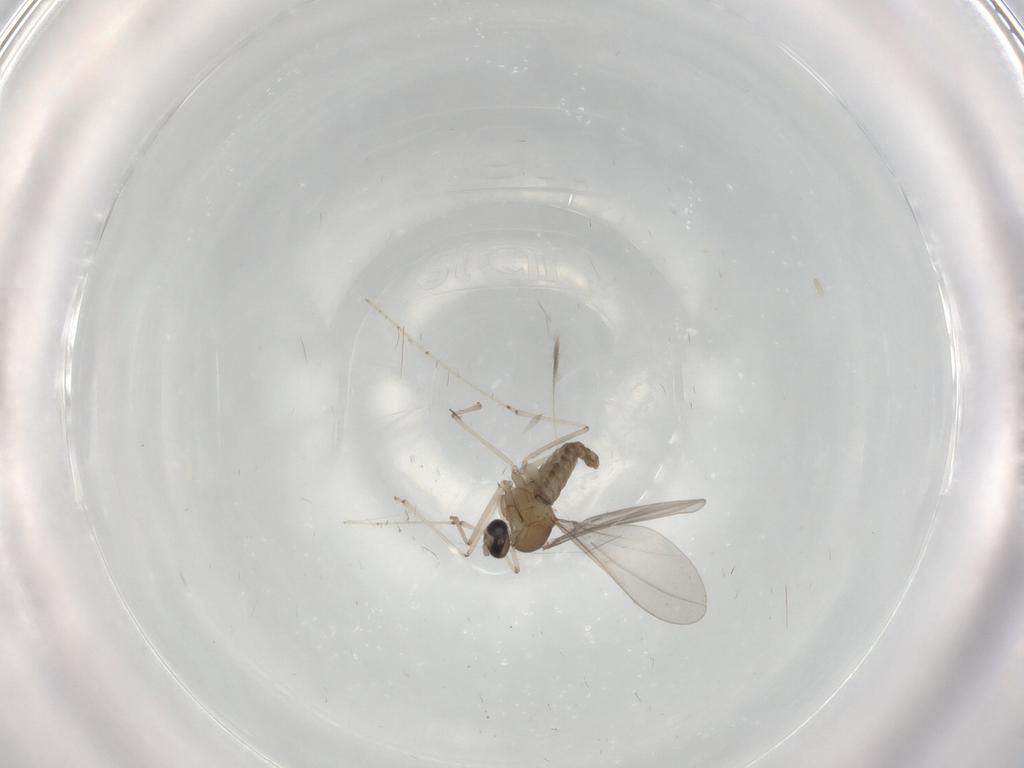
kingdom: Animalia
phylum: Arthropoda
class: Insecta
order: Diptera
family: Cecidomyiidae
